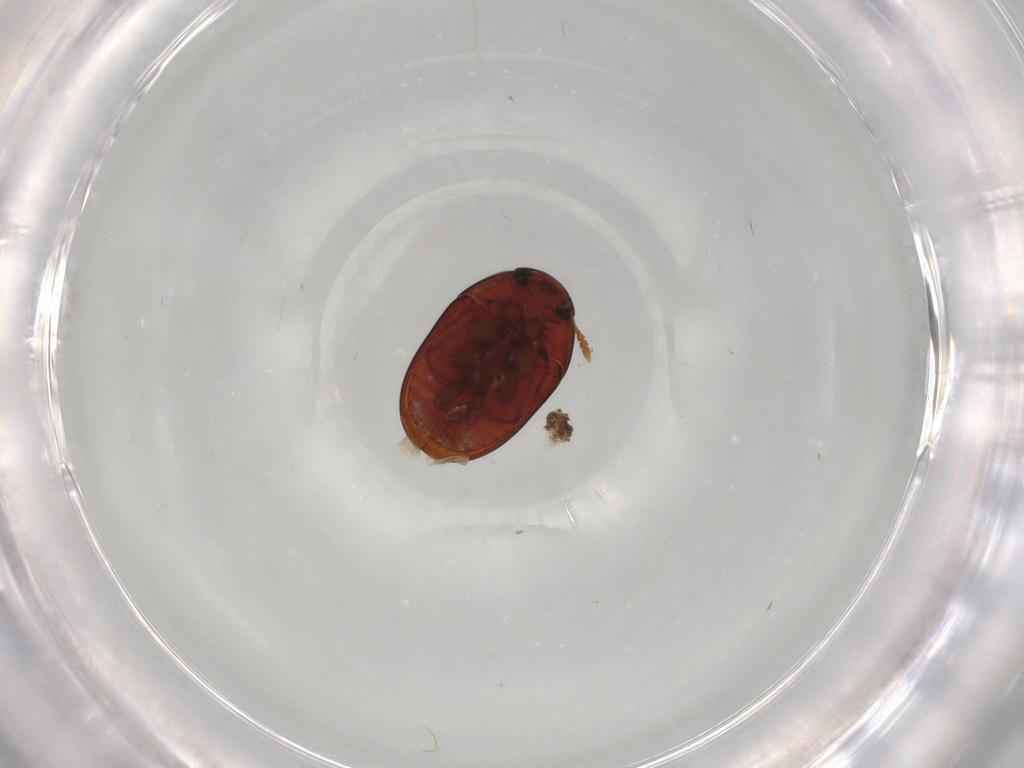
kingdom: Animalia
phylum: Arthropoda
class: Insecta
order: Coleoptera
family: Phalacridae
